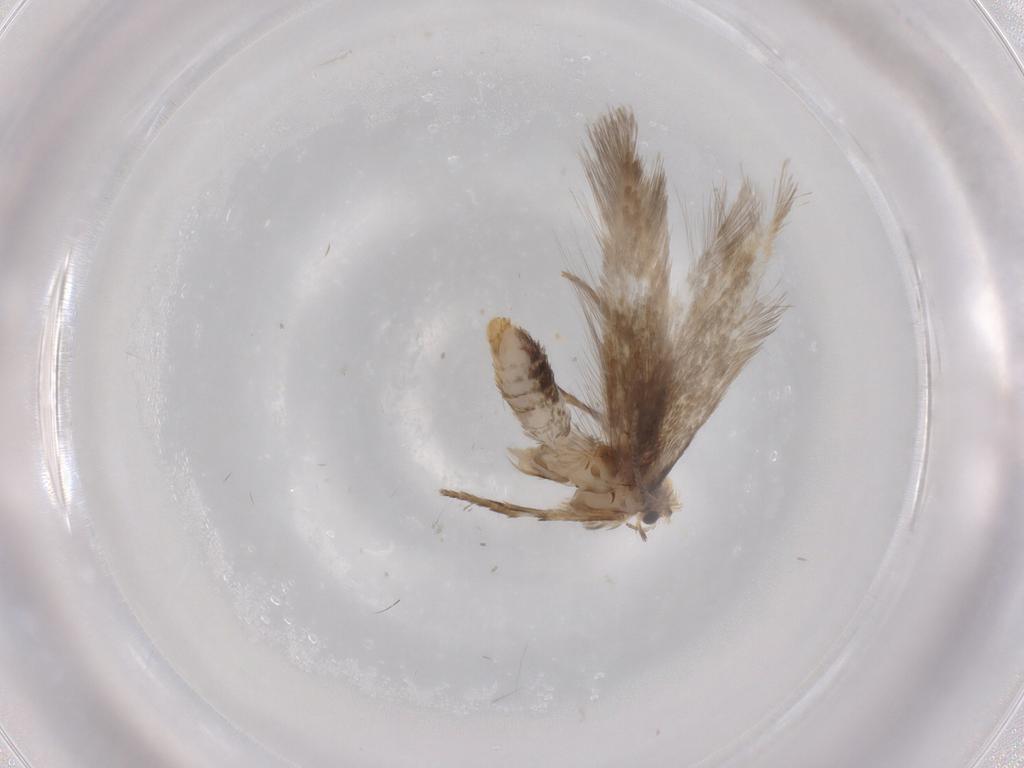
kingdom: Animalia
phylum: Arthropoda
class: Insecta
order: Lepidoptera
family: Nepticulidae
